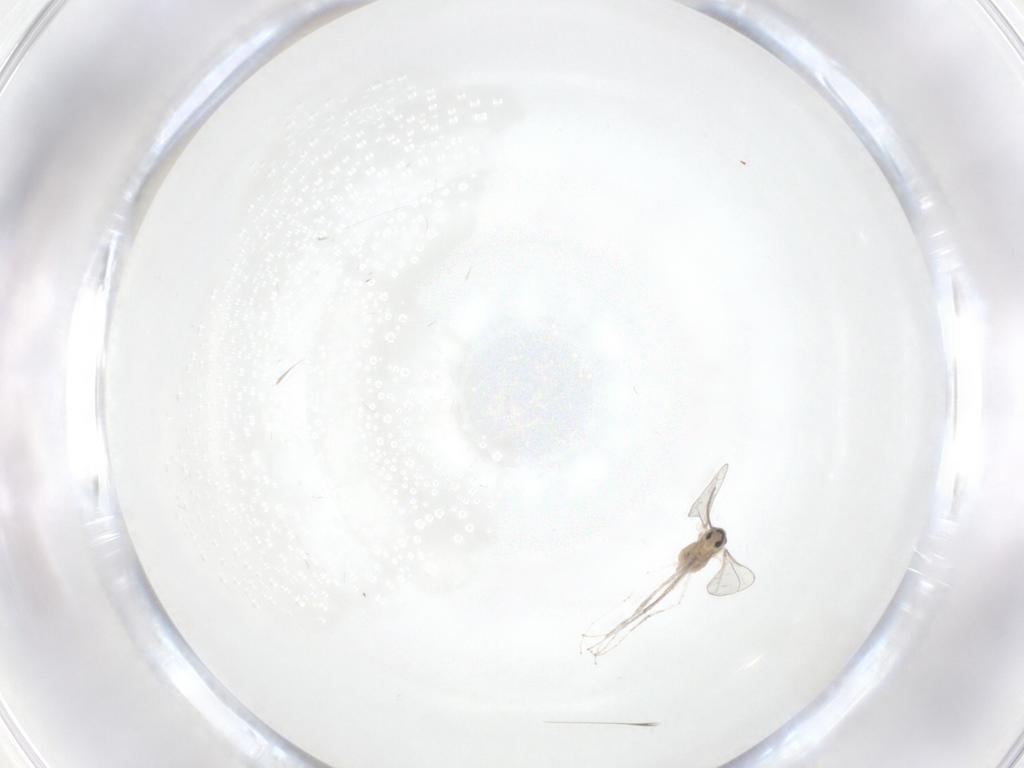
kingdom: Animalia
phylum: Arthropoda
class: Insecta
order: Diptera
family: Cecidomyiidae
